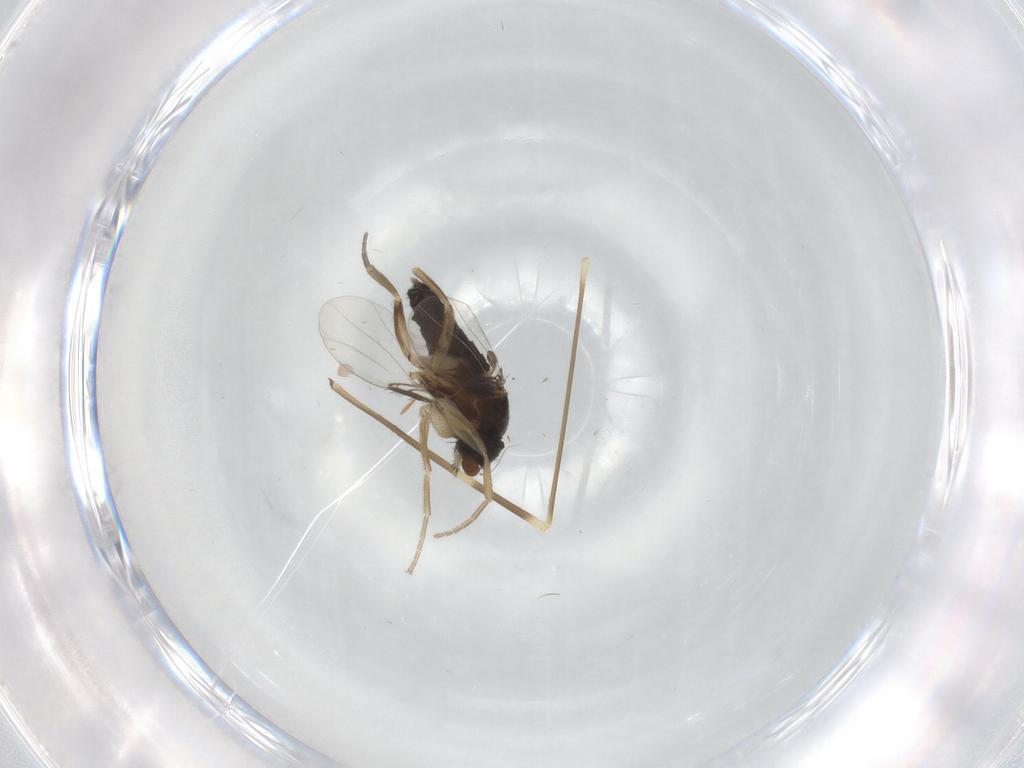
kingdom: Animalia
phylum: Arthropoda
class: Insecta
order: Diptera
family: Limoniidae
